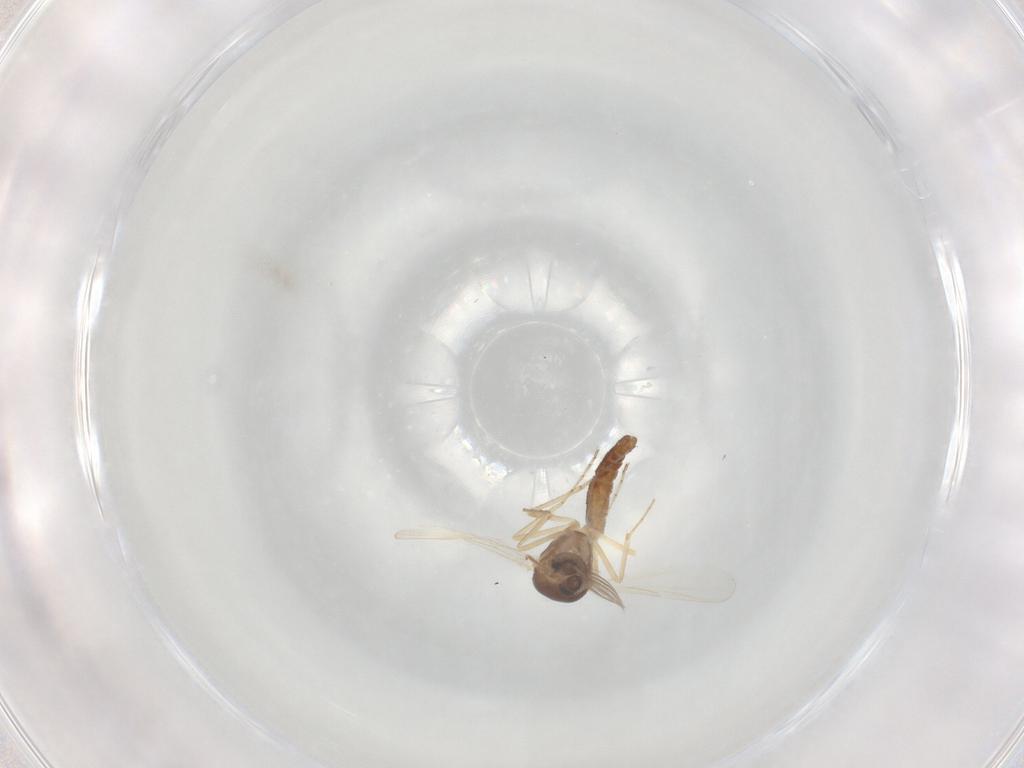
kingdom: Animalia
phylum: Arthropoda
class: Insecta
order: Diptera
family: Ceratopogonidae
